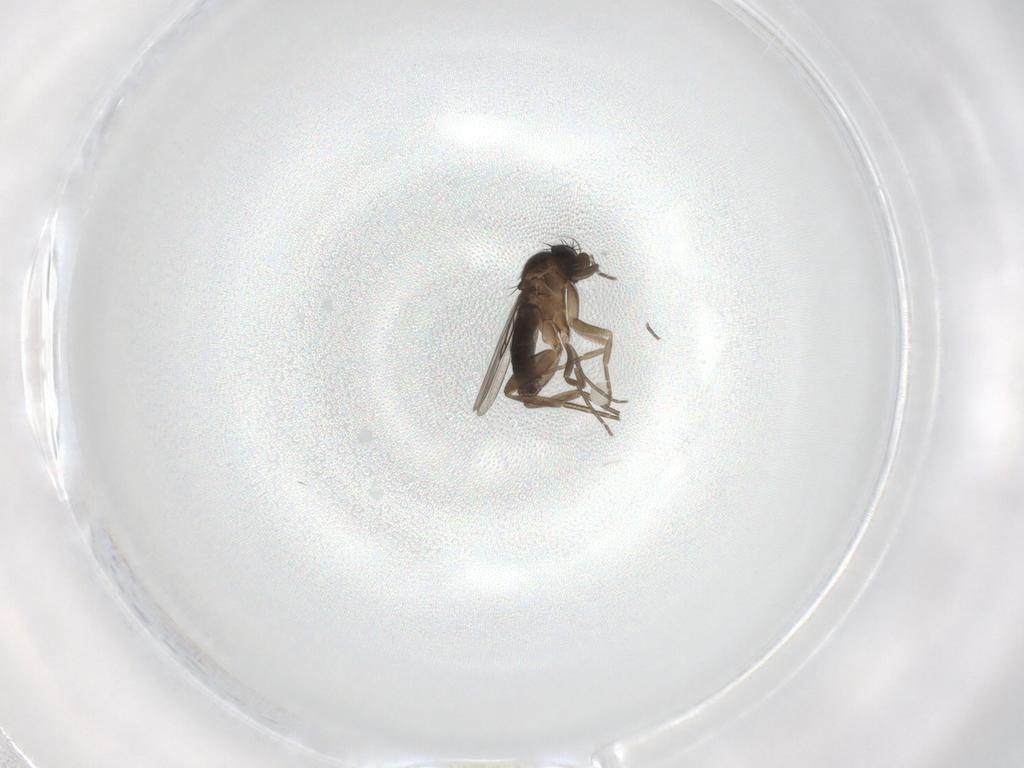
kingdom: Animalia
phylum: Arthropoda
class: Insecta
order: Diptera
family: Phoridae
